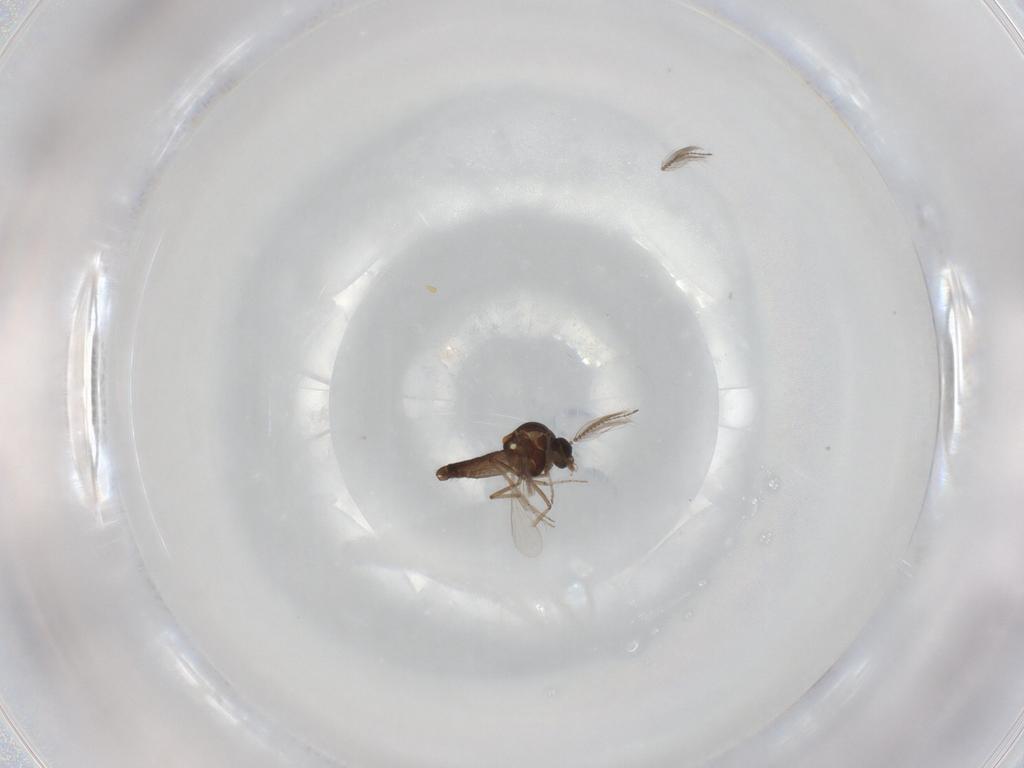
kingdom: Animalia
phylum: Arthropoda
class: Insecta
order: Diptera
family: Ceratopogonidae
